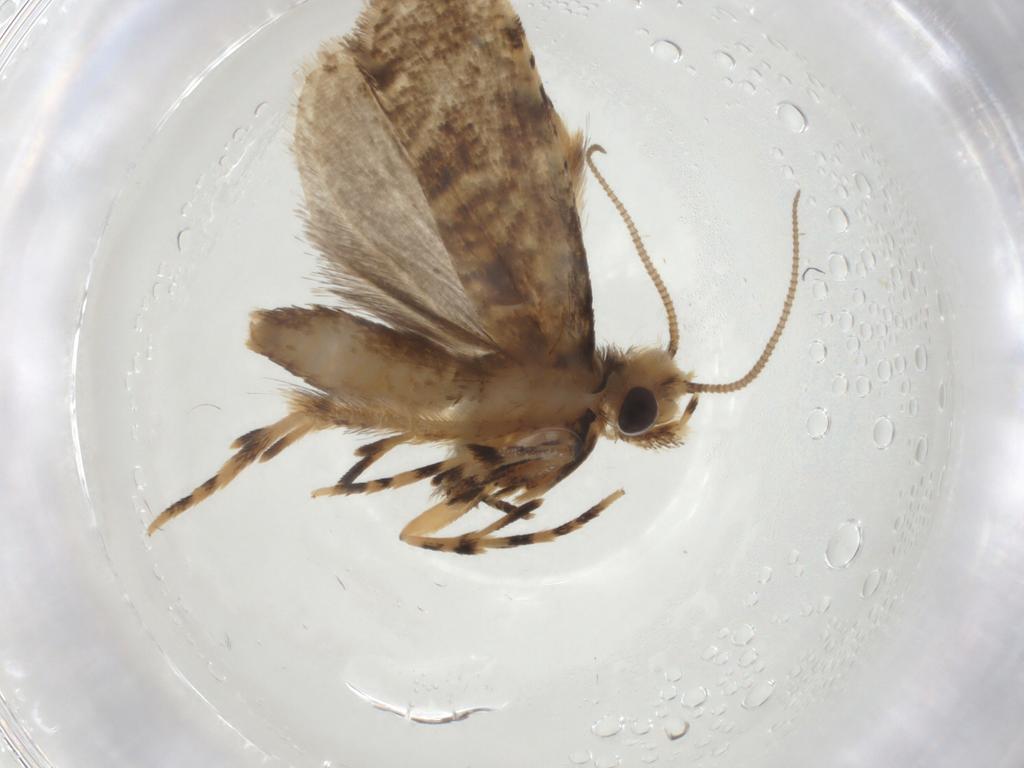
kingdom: Animalia
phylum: Arthropoda
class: Insecta
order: Lepidoptera
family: Tineidae
